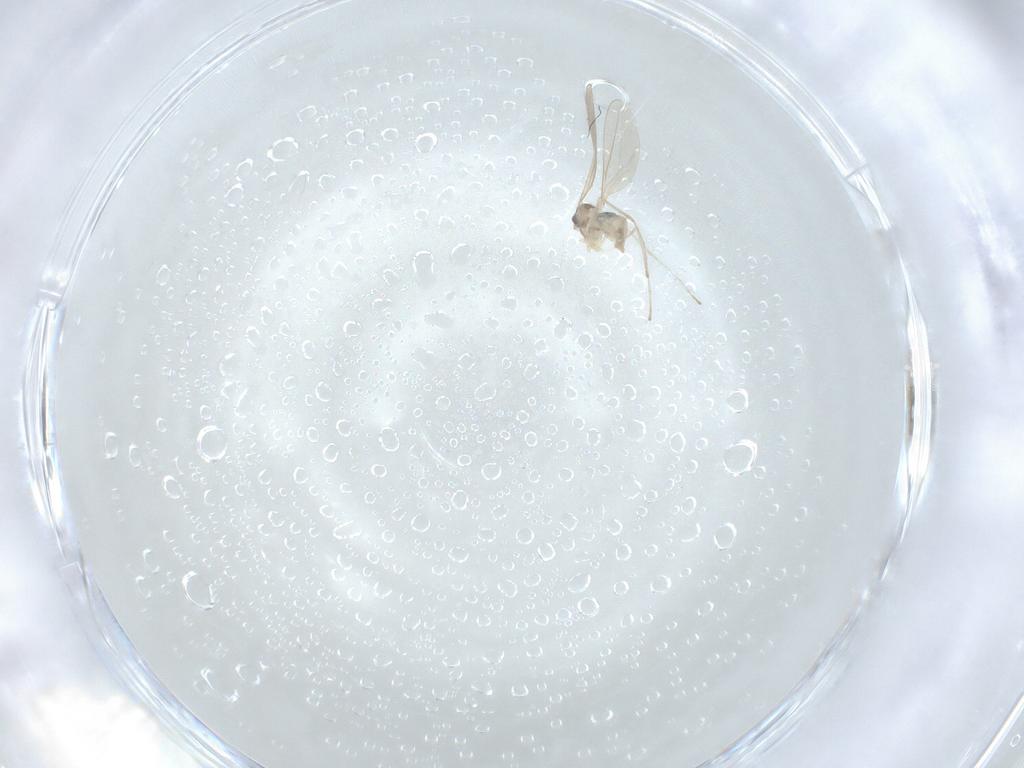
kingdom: Animalia
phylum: Arthropoda
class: Insecta
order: Diptera
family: Cecidomyiidae
